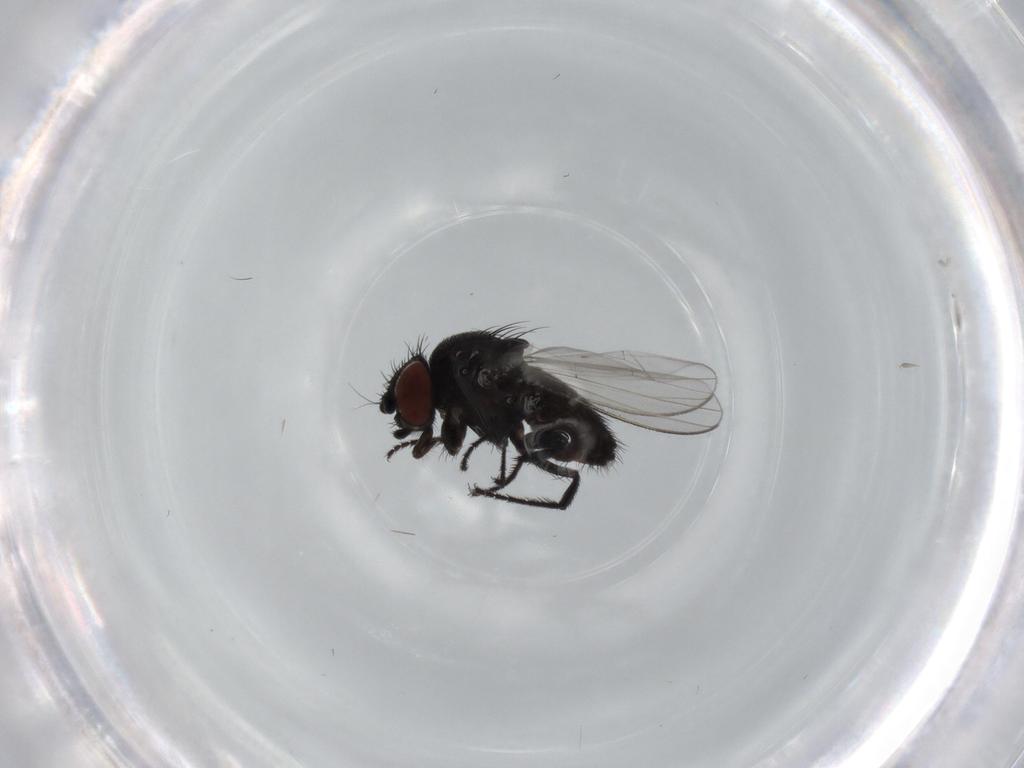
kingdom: Animalia
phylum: Arthropoda
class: Insecta
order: Diptera
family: Milichiidae
